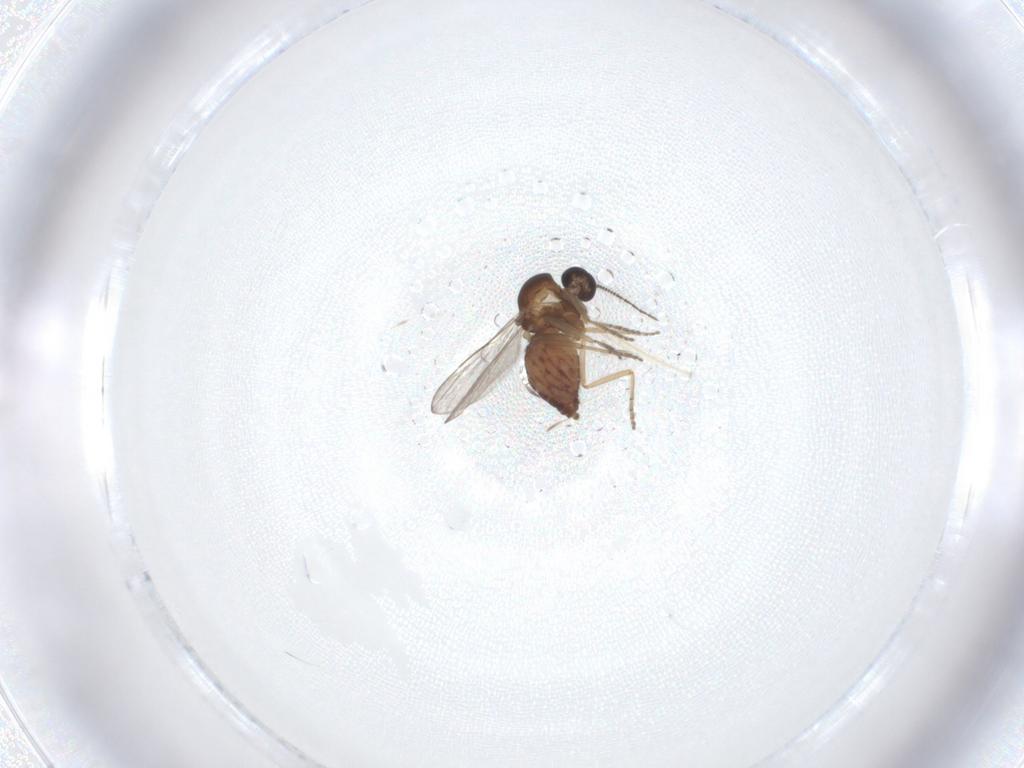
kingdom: Animalia
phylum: Arthropoda
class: Insecta
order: Diptera
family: Ceratopogonidae
